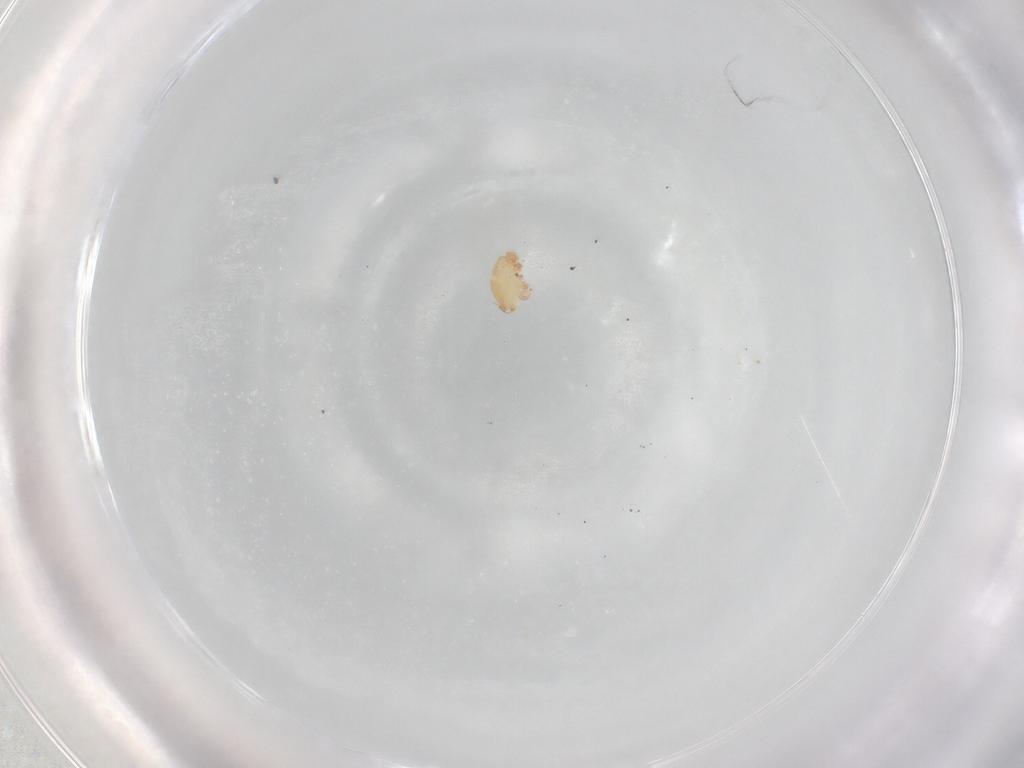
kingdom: Animalia
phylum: Arthropoda
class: Arachnida
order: Trombidiformes
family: Stigmaeidae
